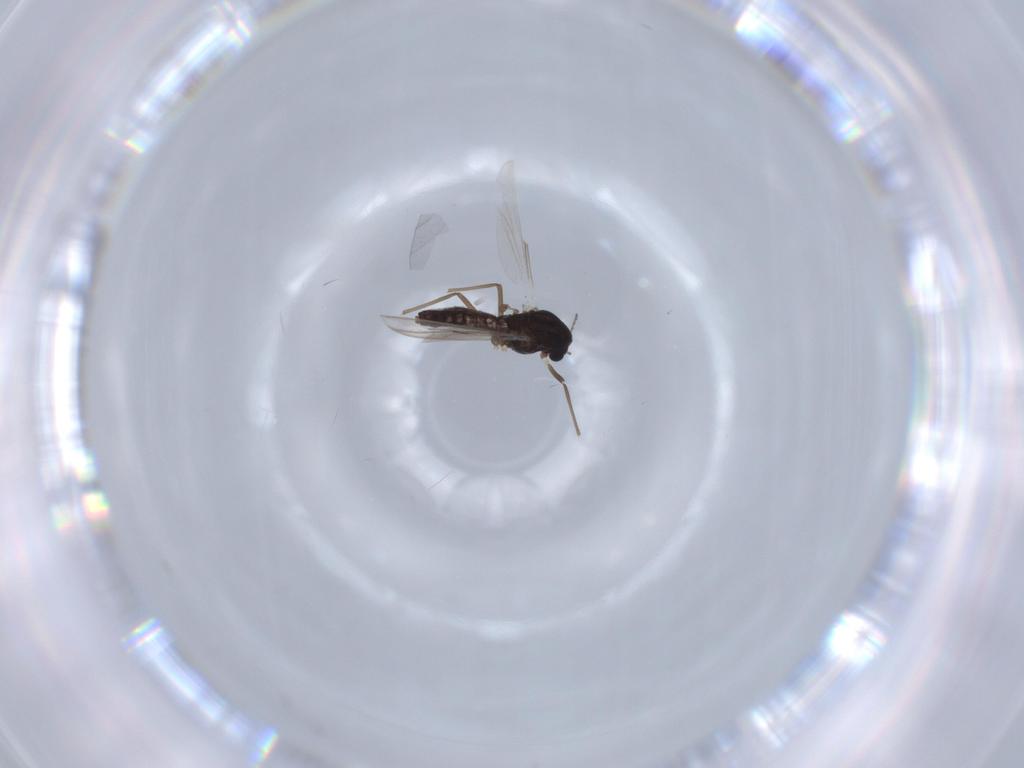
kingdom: Animalia
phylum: Arthropoda
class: Insecta
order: Diptera
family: Chironomidae
